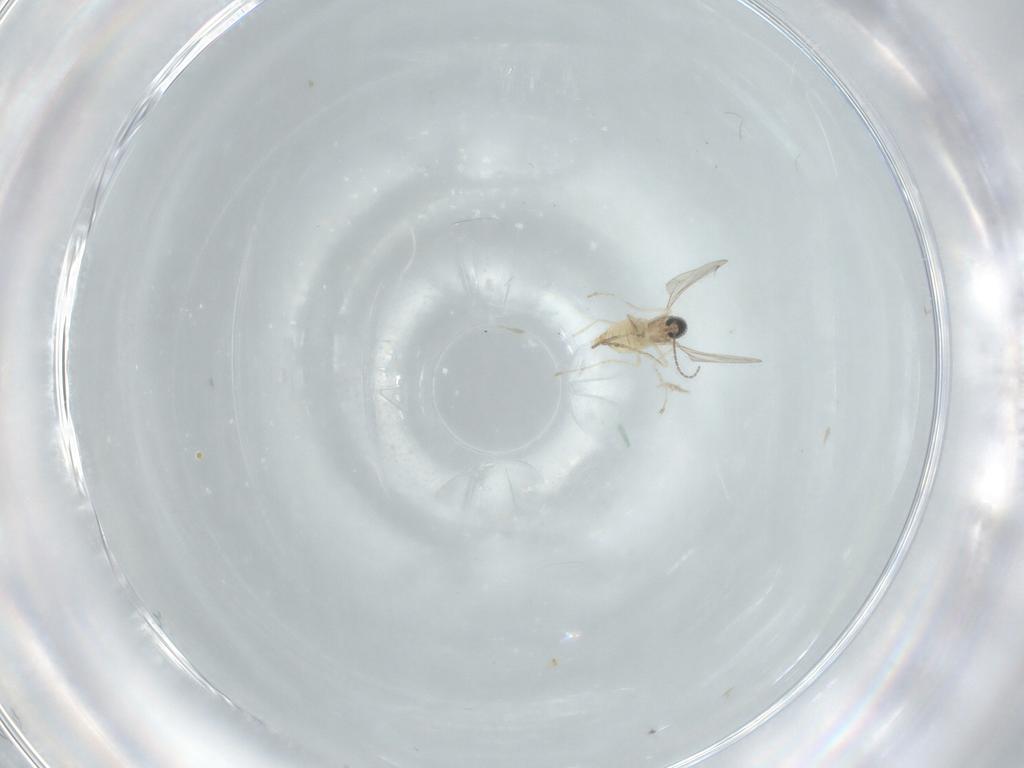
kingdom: Animalia
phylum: Arthropoda
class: Insecta
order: Diptera
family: Cecidomyiidae
